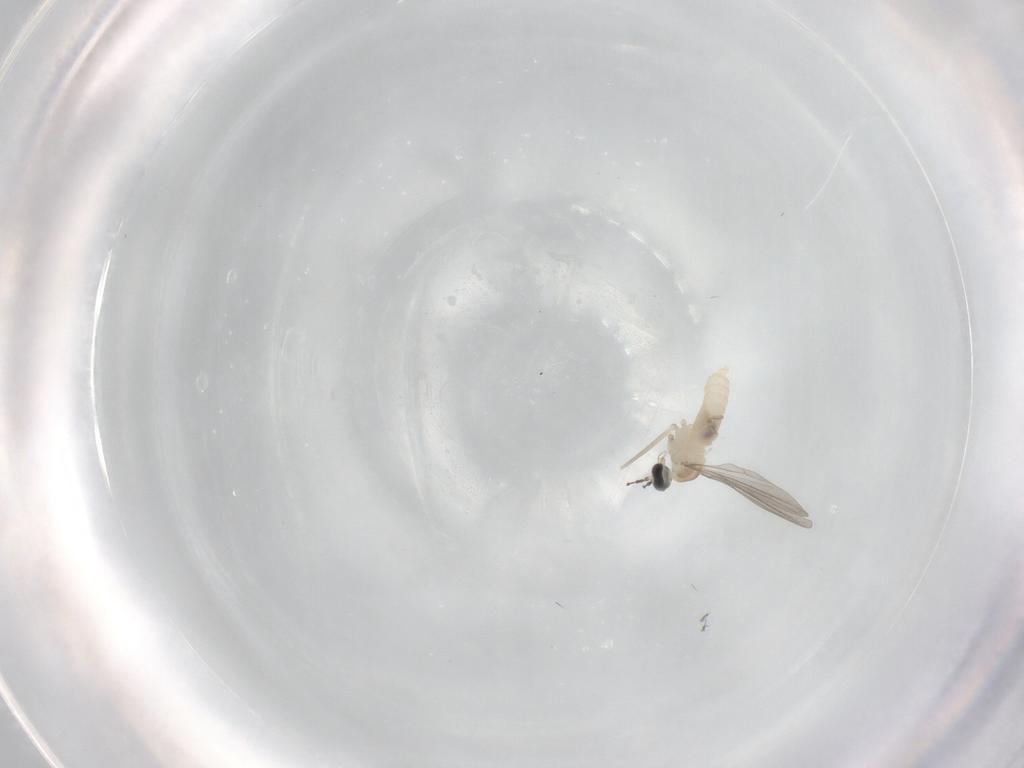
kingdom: Animalia
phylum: Arthropoda
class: Insecta
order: Diptera
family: Cecidomyiidae
